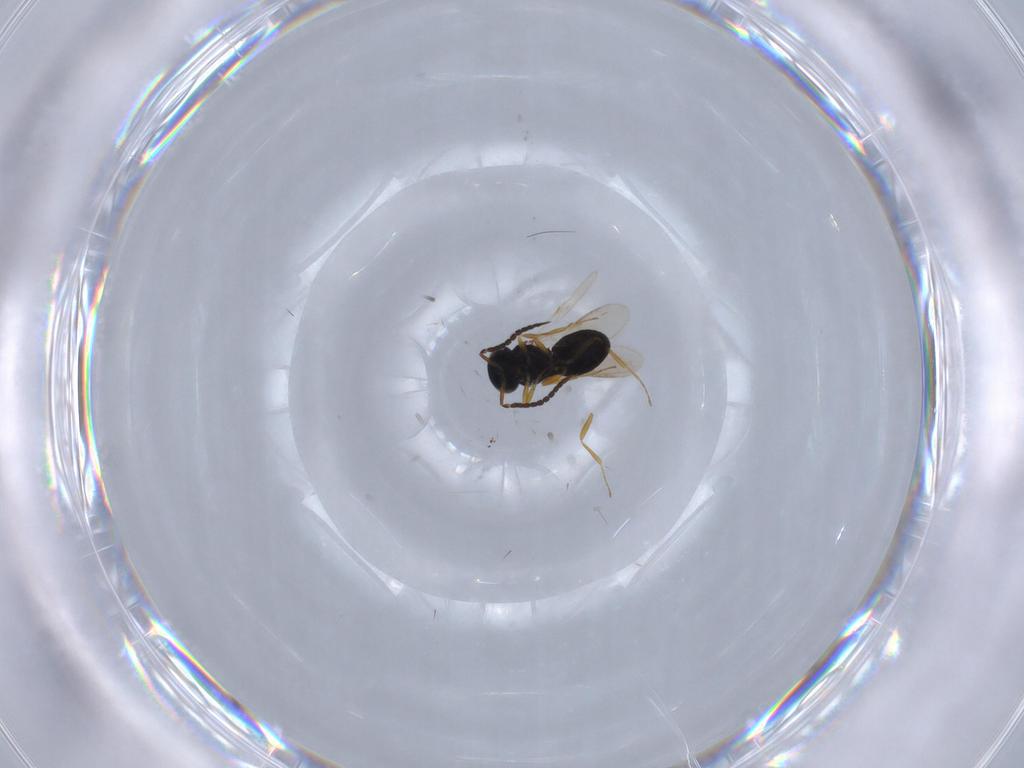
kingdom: Animalia
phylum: Arthropoda
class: Insecta
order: Hymenoptera
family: Scelionidae
